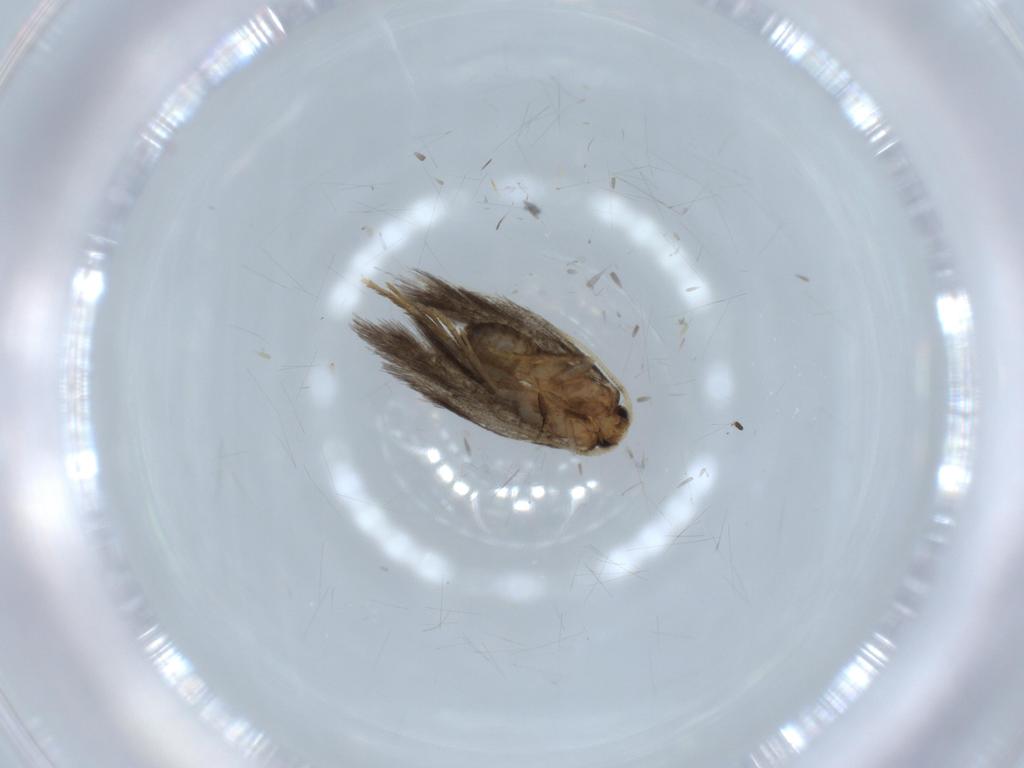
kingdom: Animalia
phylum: Arthropoda
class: Insecta
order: Lepidoptera
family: Nepticulidae
